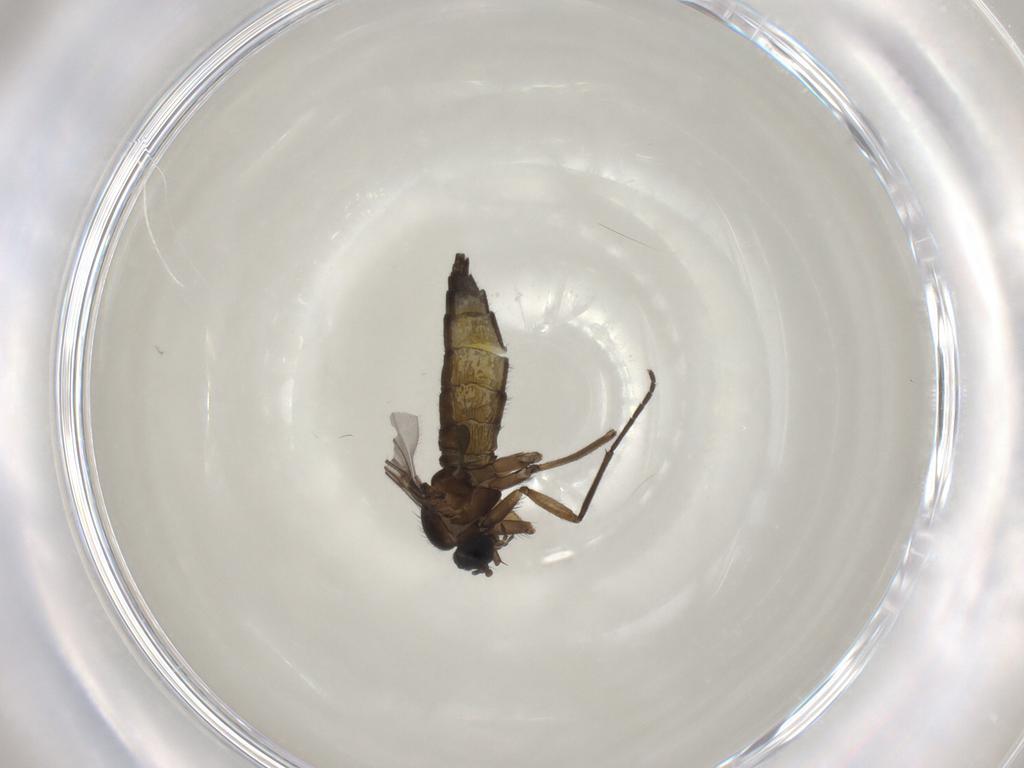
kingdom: Animalia
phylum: Arthropoda
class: Insecta
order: Diptera
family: Sciaridae
